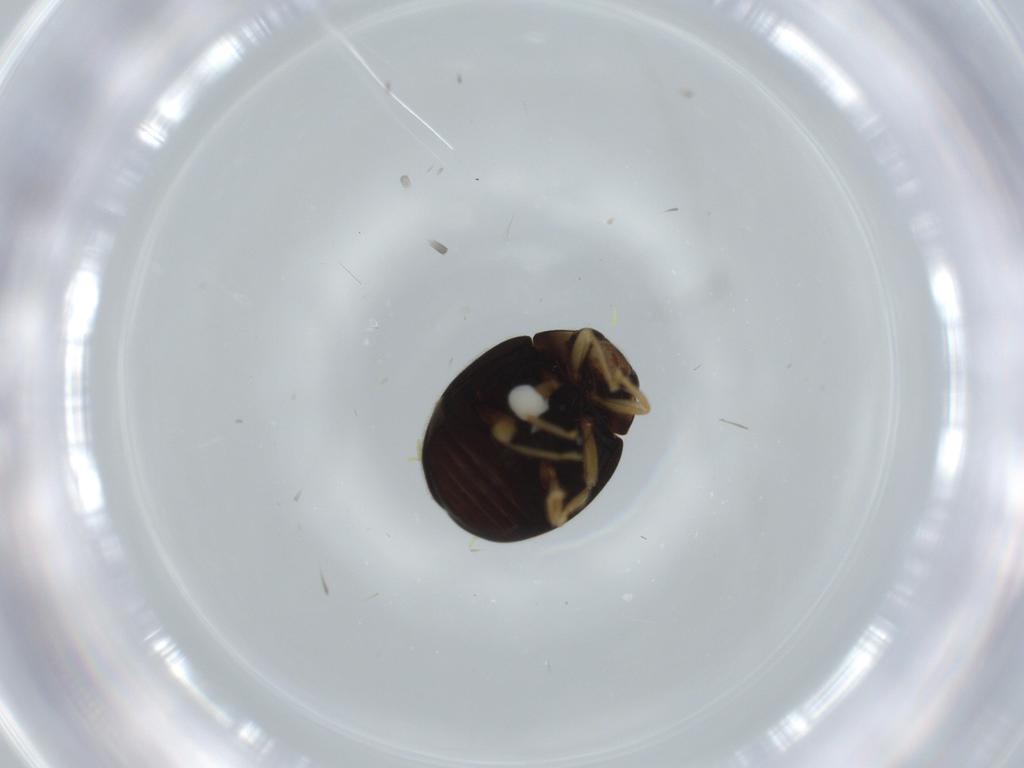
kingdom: Animalia
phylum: Arthropoda
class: Insecta
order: Coleoptera
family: Coccinellidae
